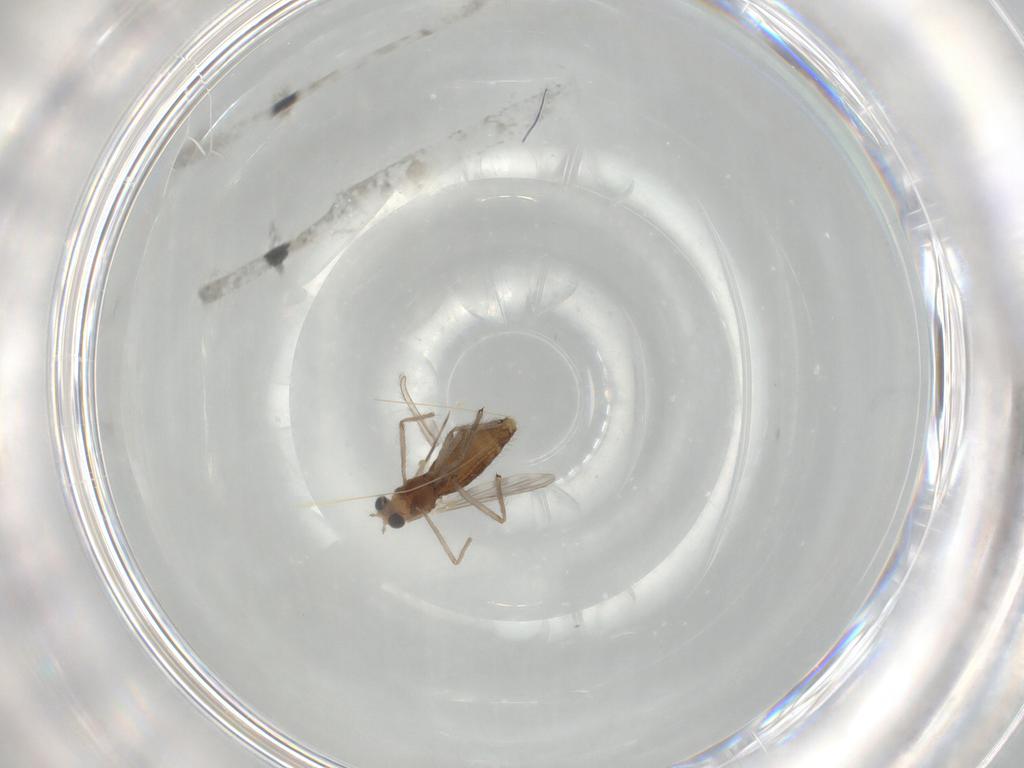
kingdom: Animalia
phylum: Arthropoda
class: Insecta
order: Diptera
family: Chironomidae
